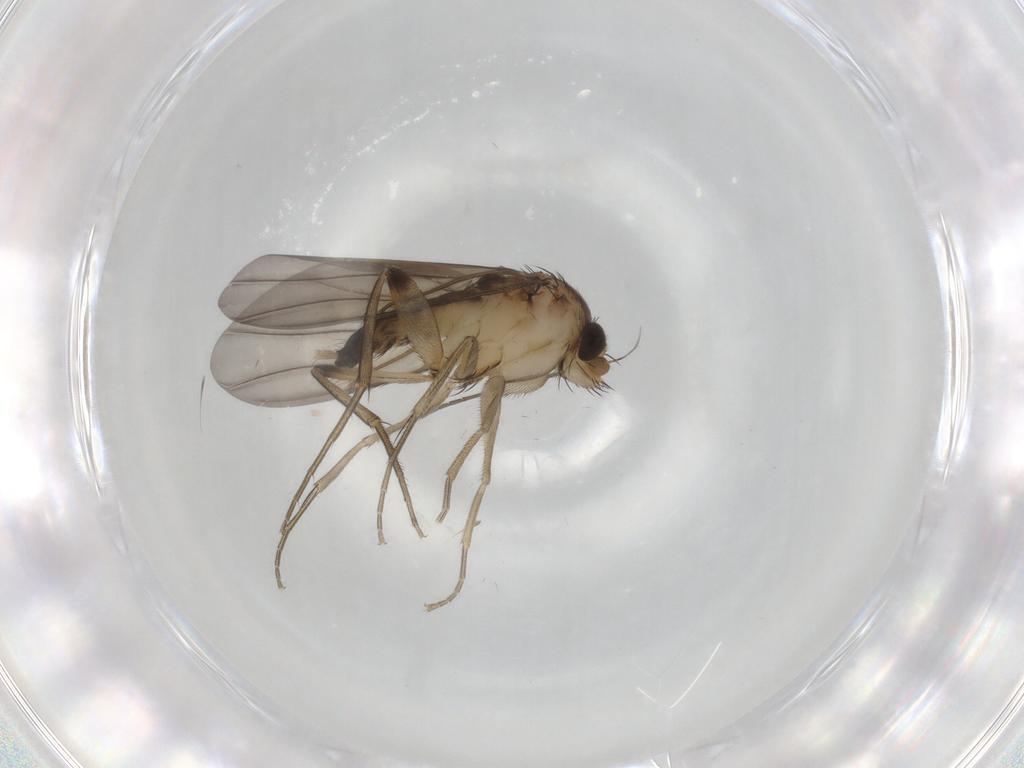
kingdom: Animalia
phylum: Arthropoda
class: Insecta
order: Diptera
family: Phoridae
